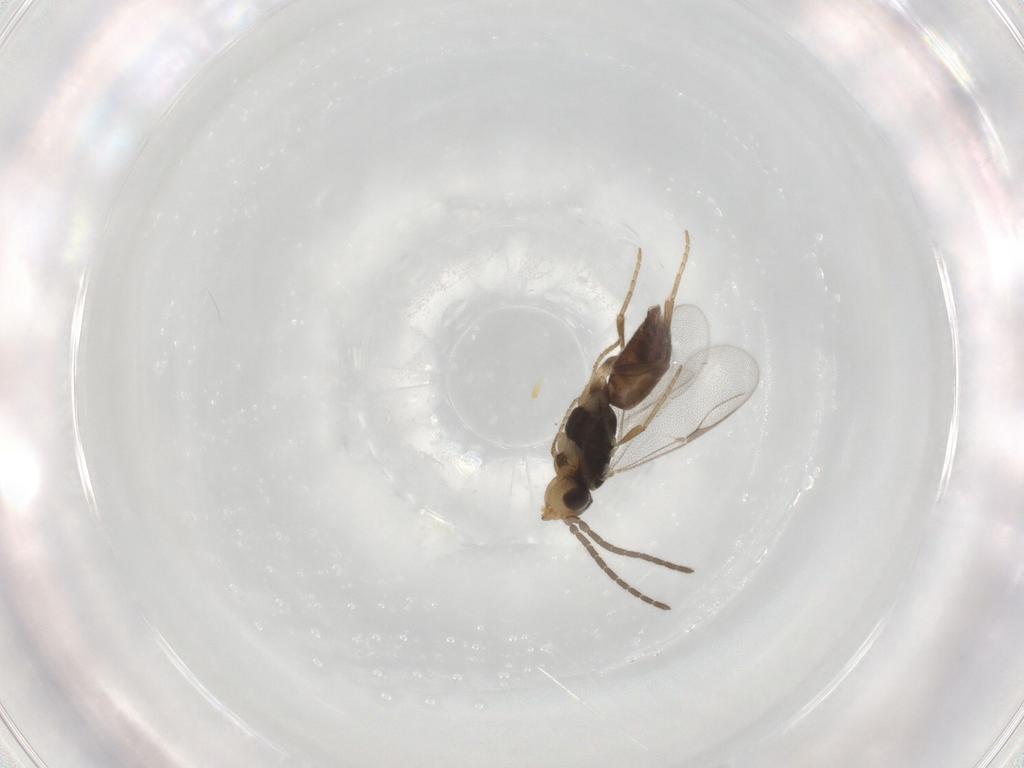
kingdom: Animalia
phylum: Arthropoda
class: Insecta
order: Hymenoptera
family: Dryinidae
